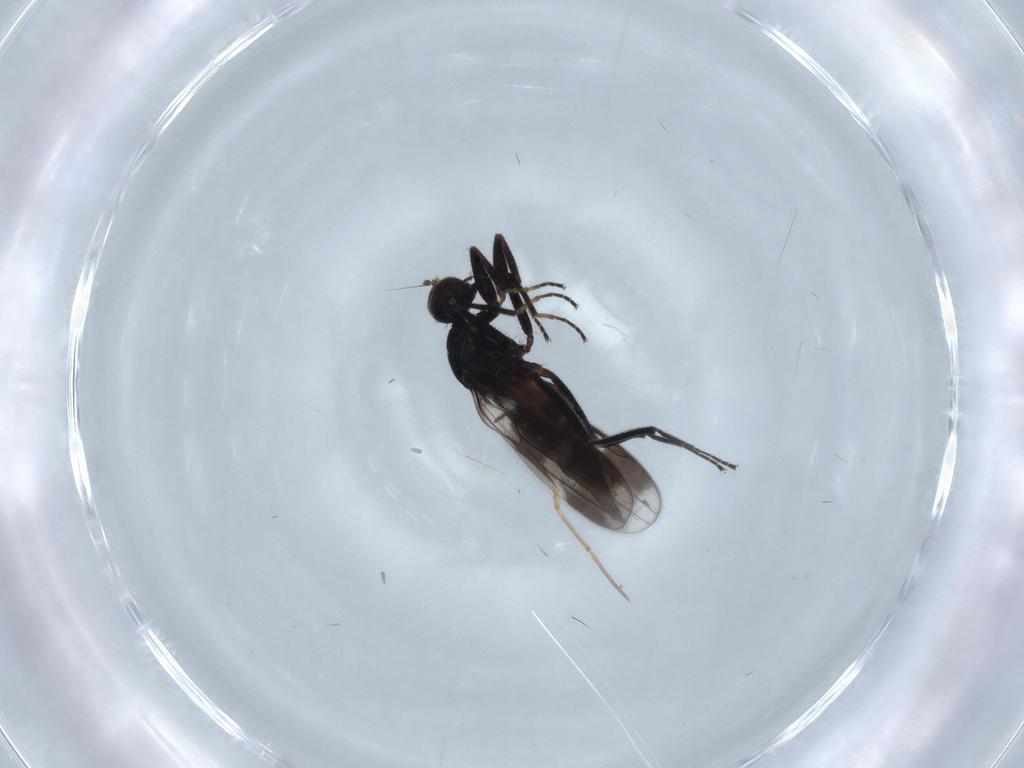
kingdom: Animalia
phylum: Arthropoda
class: Insecta
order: Diptera
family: Hybotidae
